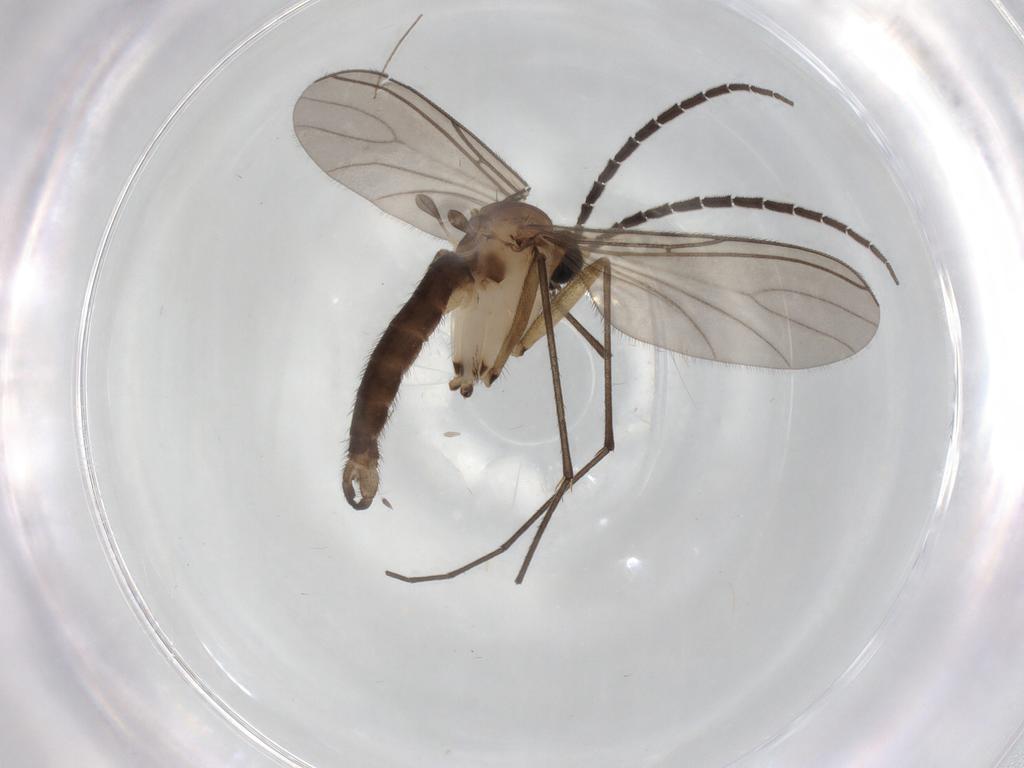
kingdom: Animalia
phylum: Arthropoda
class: Insecta
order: Diptera
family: Sciaridae
